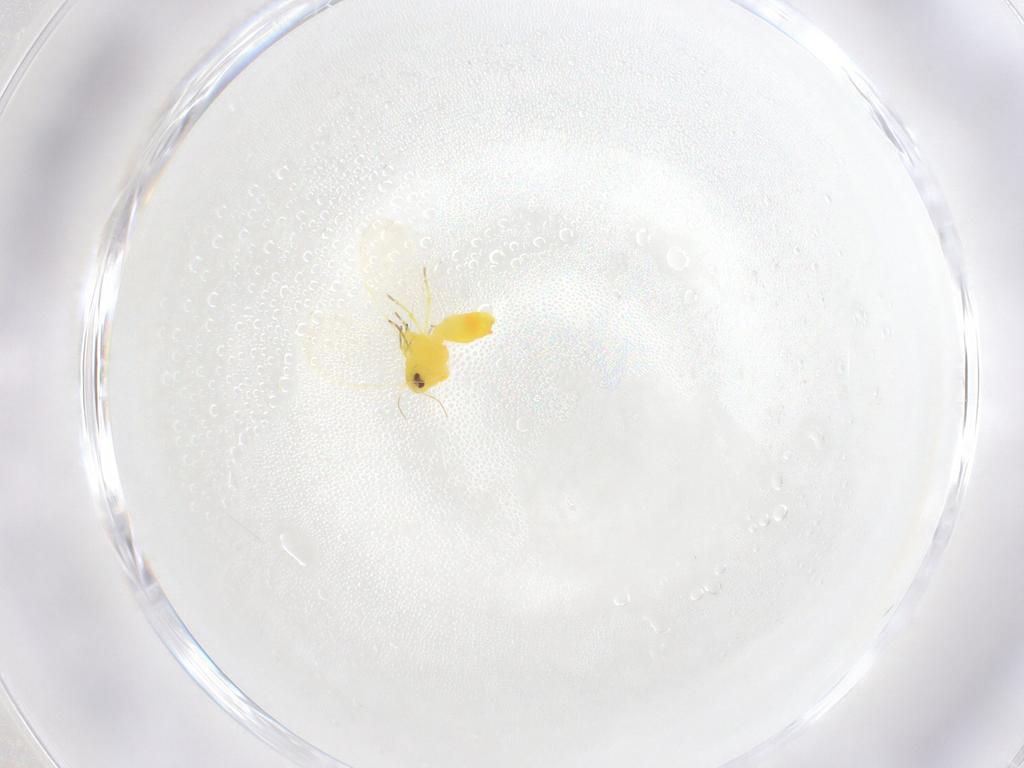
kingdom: Animalia
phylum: Arthropoda
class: Insecta
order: Hemiptera
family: Aleyrodidae
